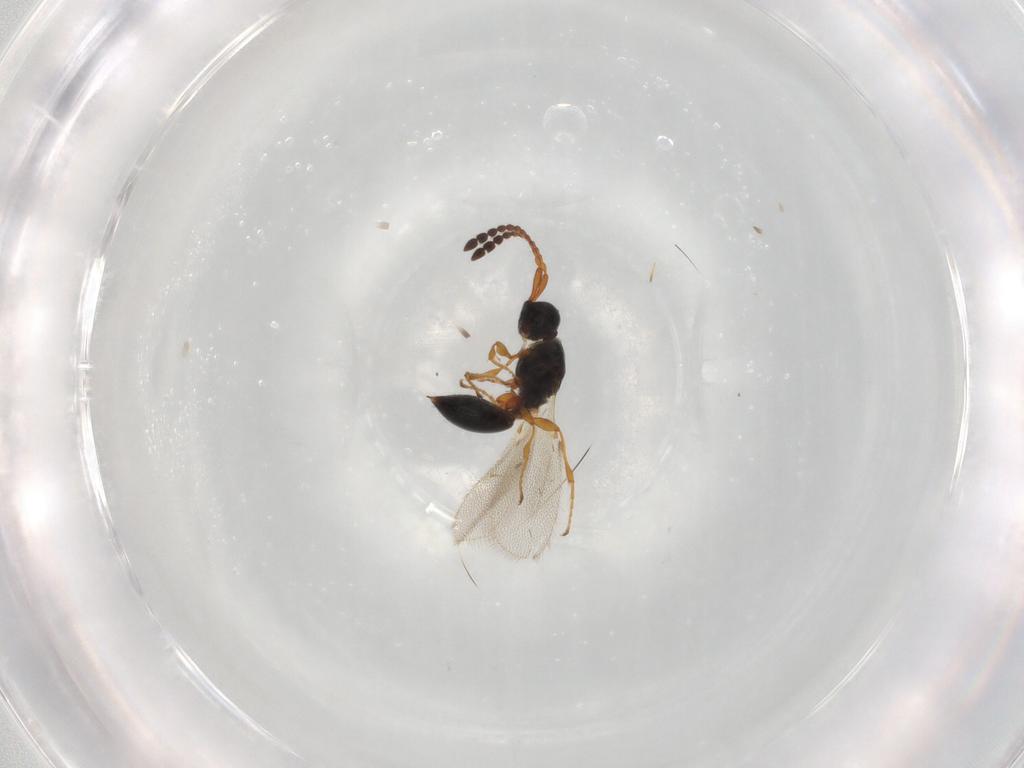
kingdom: Animalia
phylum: Arthropoda
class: Insecta
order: Hymenoptera
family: Diapriidae
